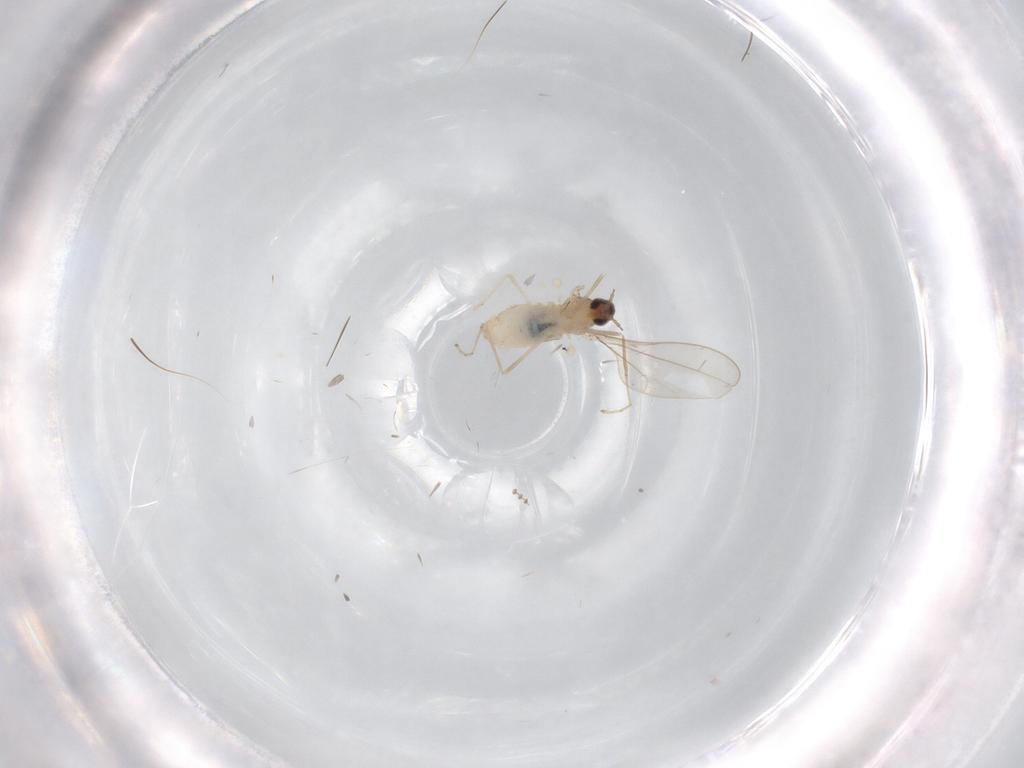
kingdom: Animalia
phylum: Arthropoda
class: Insecta
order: Diptera
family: Cecidomyiidae
